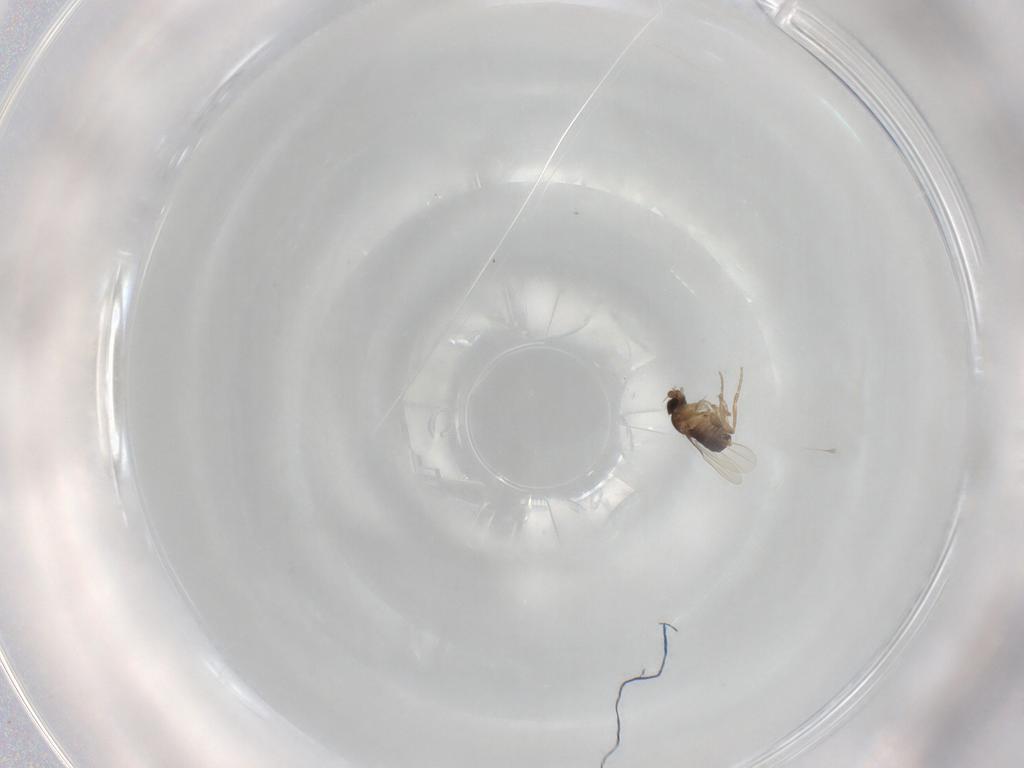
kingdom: Animalia
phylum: Arthropoda
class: Insecta
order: Diptera
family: Phoridae
